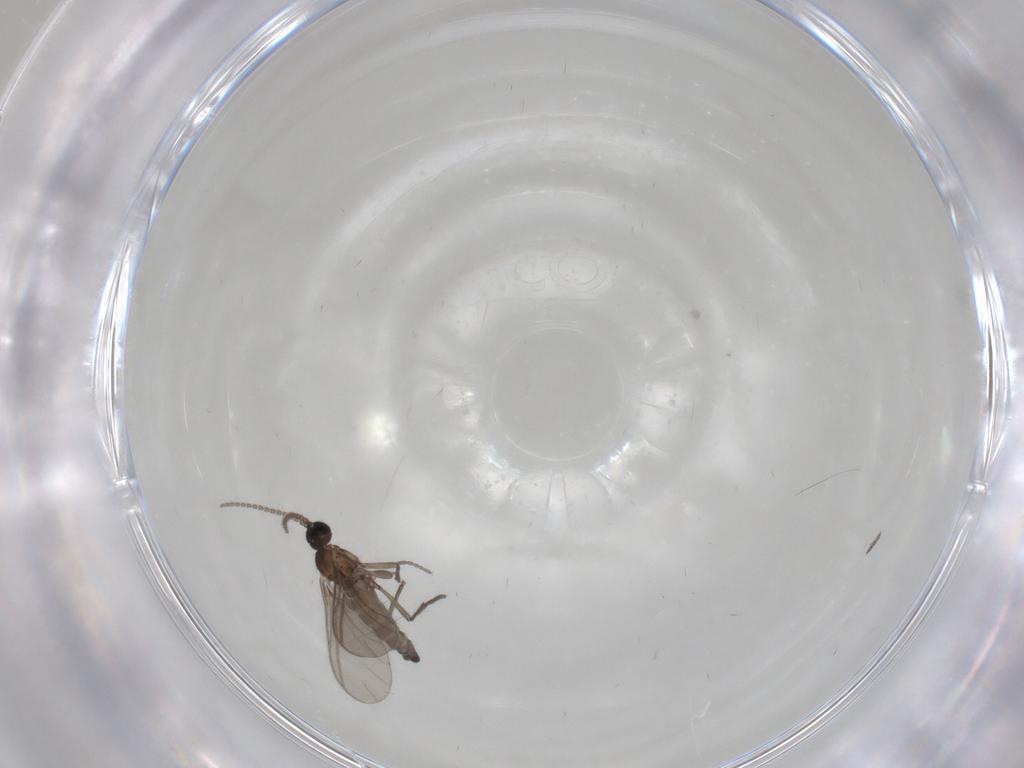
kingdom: Animalia
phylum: Arthropoda
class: Insecta
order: Diptera
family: Sciaridae
